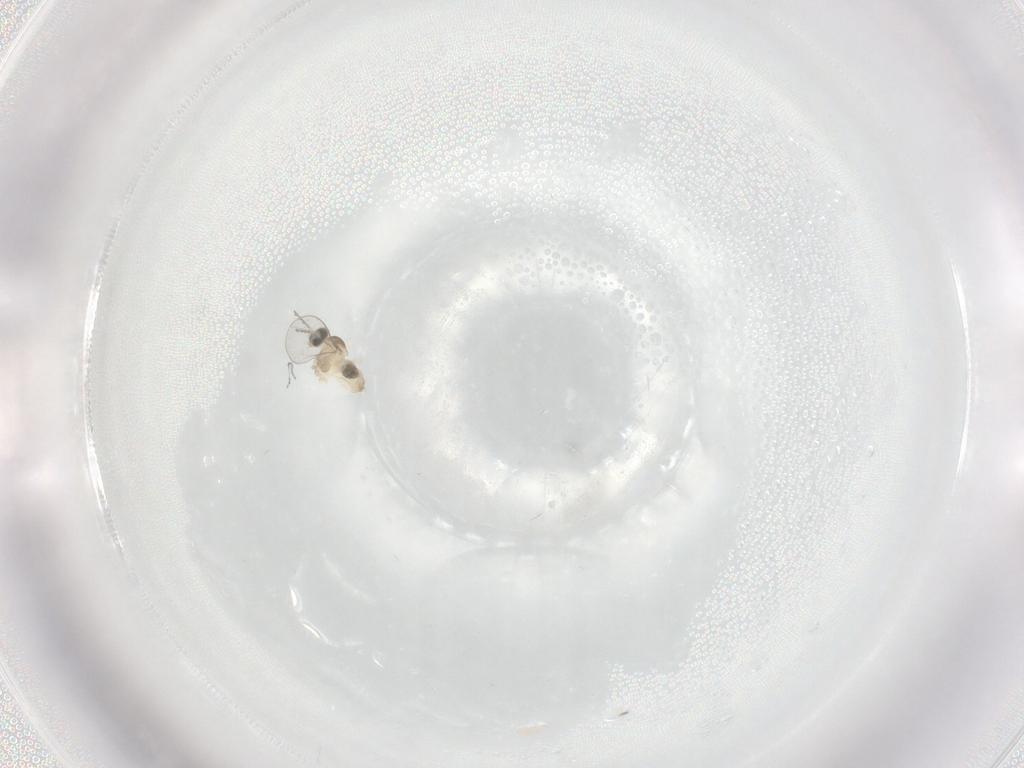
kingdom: Animalia
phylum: Arthropoda
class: Insecta
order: Diptera
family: Cecidomyiidae
